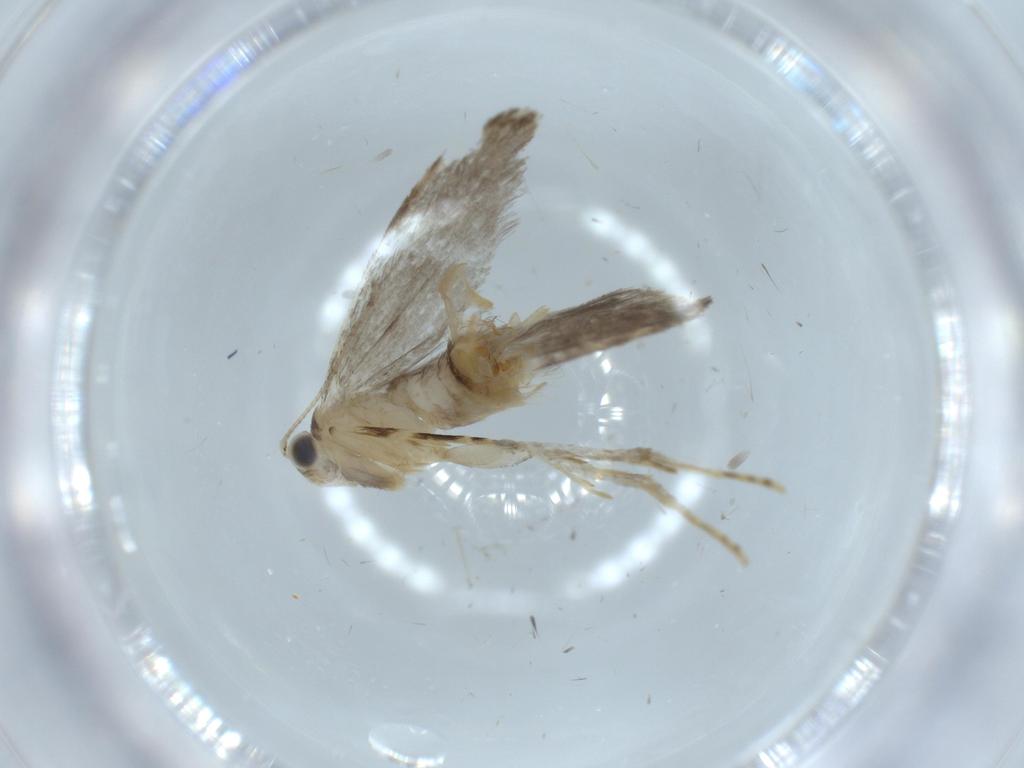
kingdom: Animalia
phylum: Arthropoda
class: Insecta
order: Lepidoptera
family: Tineidae
